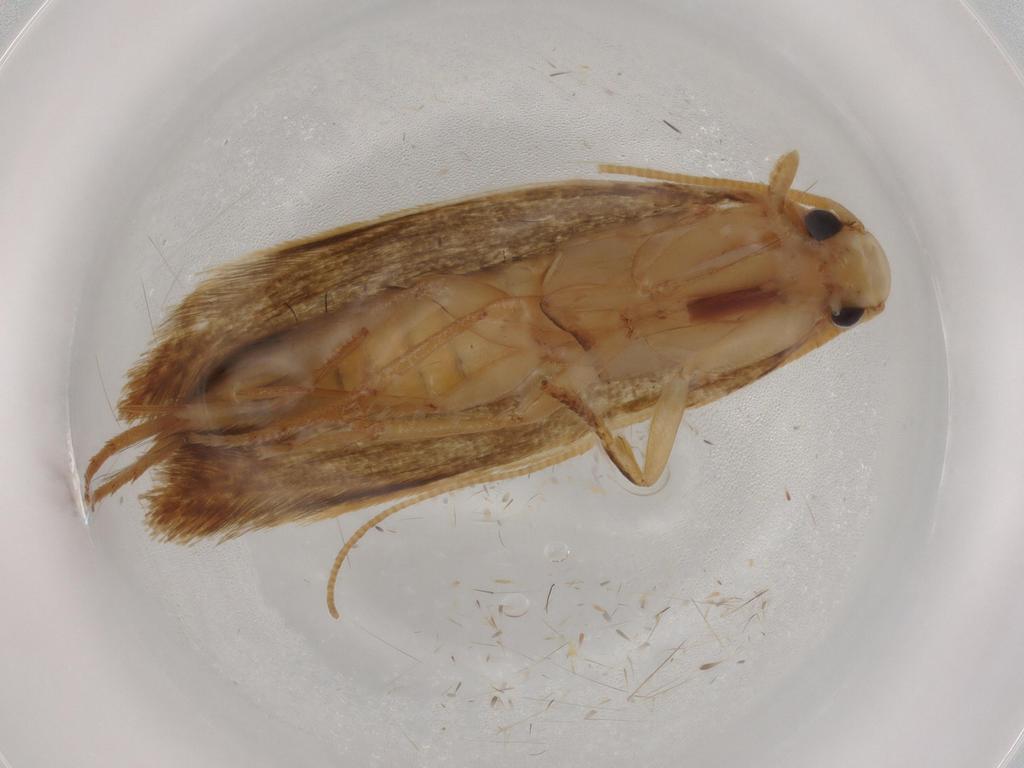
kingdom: Animalia
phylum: Arthropoda
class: Insecta
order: Lepidoptera
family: Tineidae
